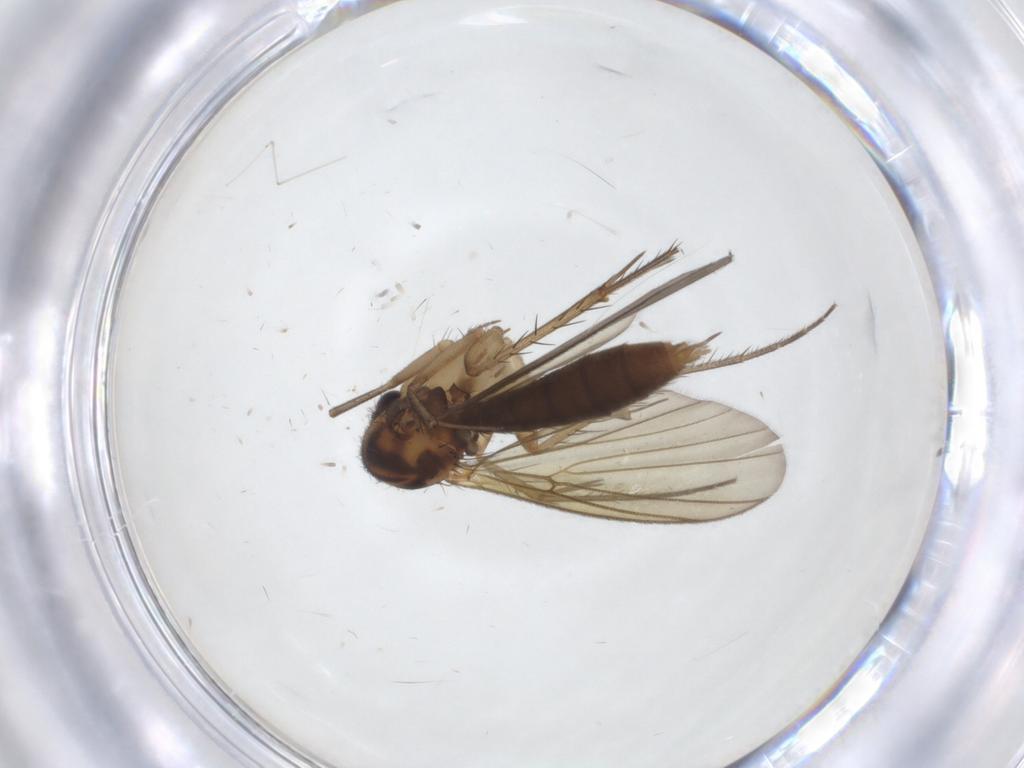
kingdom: Animalia
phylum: Arthropoda
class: Insecta
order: Diptera
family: Mycetophilidae
